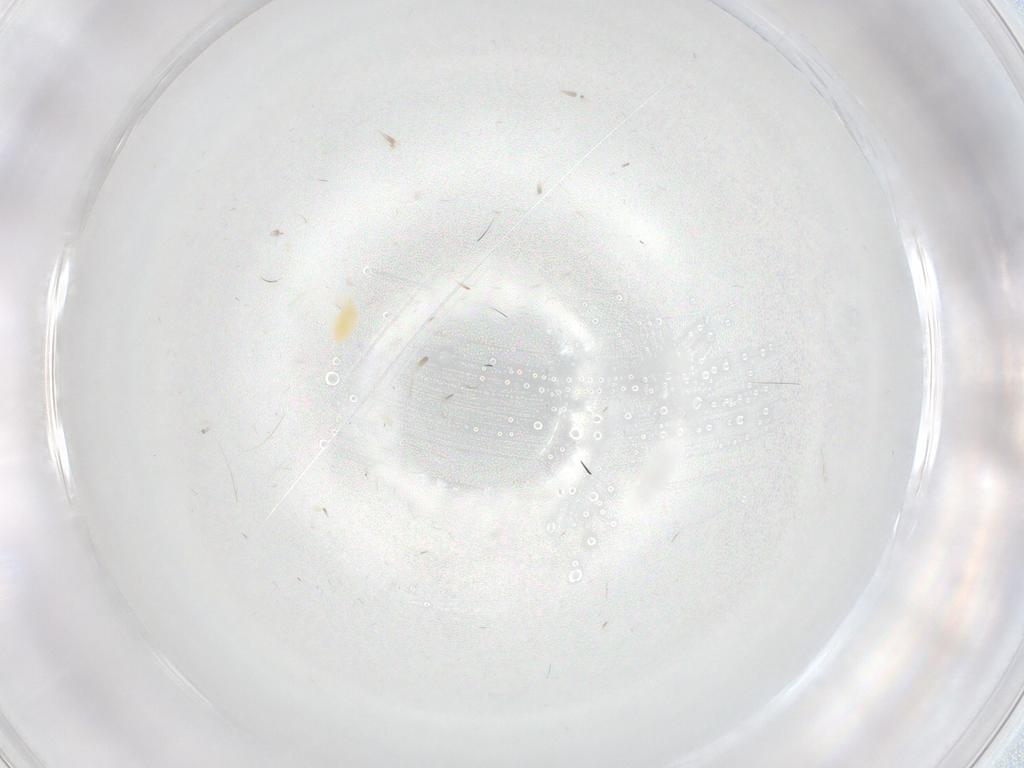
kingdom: Animalia
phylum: Arthropoda
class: Insecta
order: Diptera
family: Chironomidae
